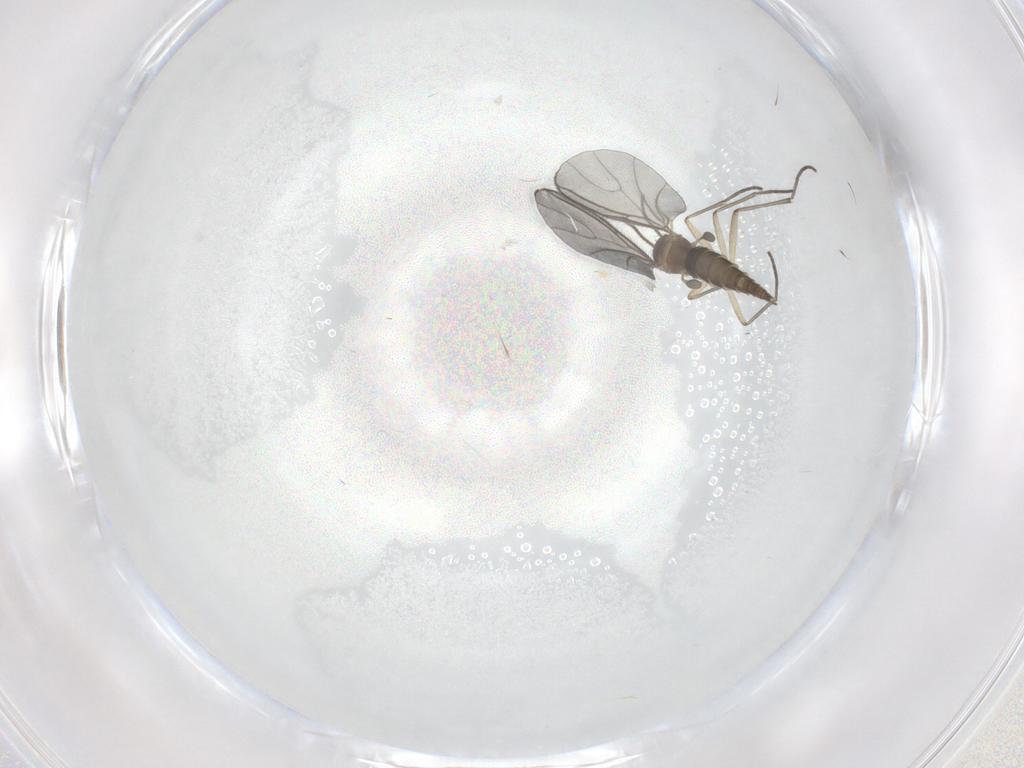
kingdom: Animalia
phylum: Arthropoda
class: Insecta
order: Diptera
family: Sciaridae
